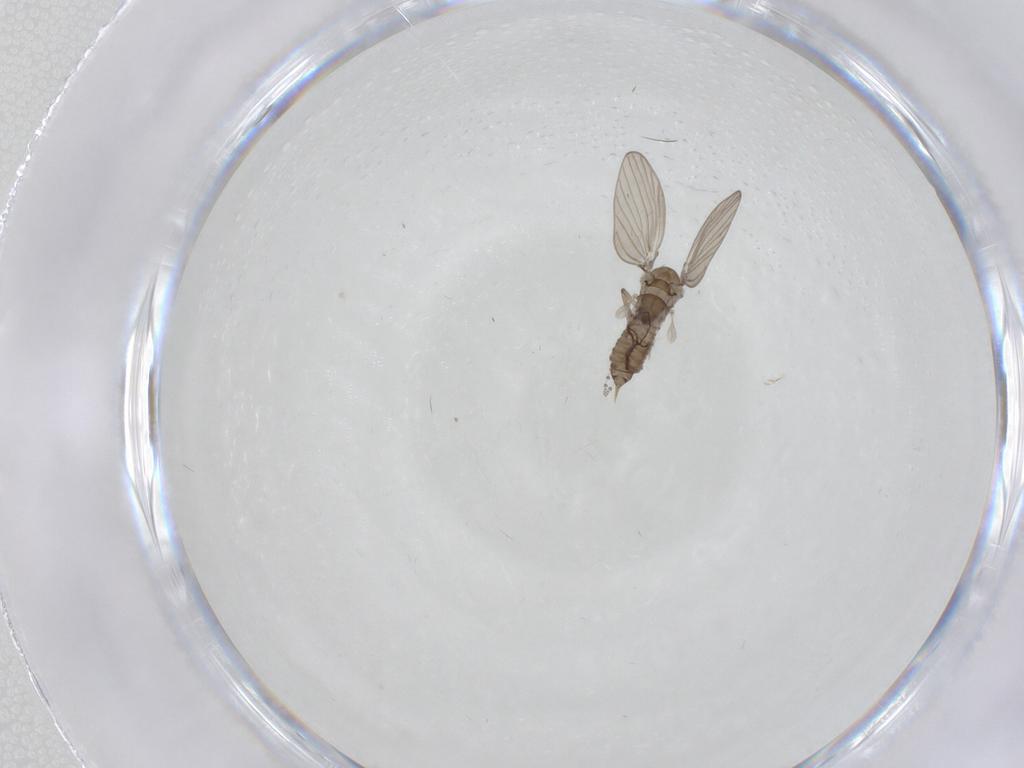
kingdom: Animalia
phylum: Arthropoda
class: Insecta
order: Diptera
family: Psychodidae
